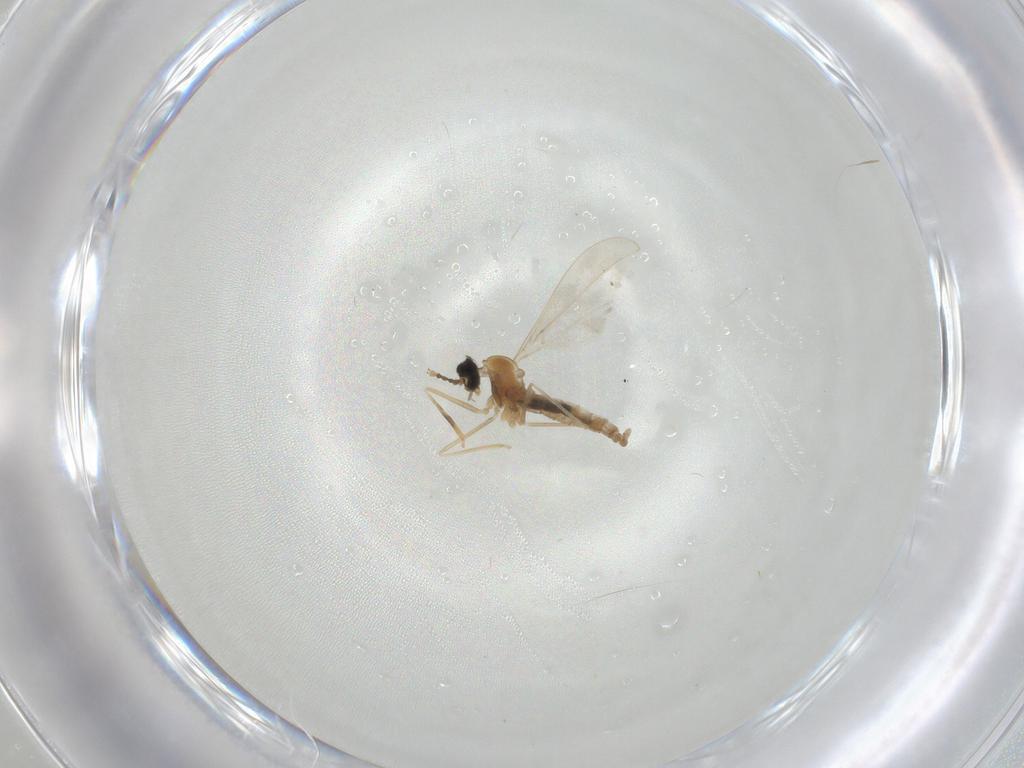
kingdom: Animalia
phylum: Arthropoda
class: Insecta
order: Diptera
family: Cecidomyiidae
